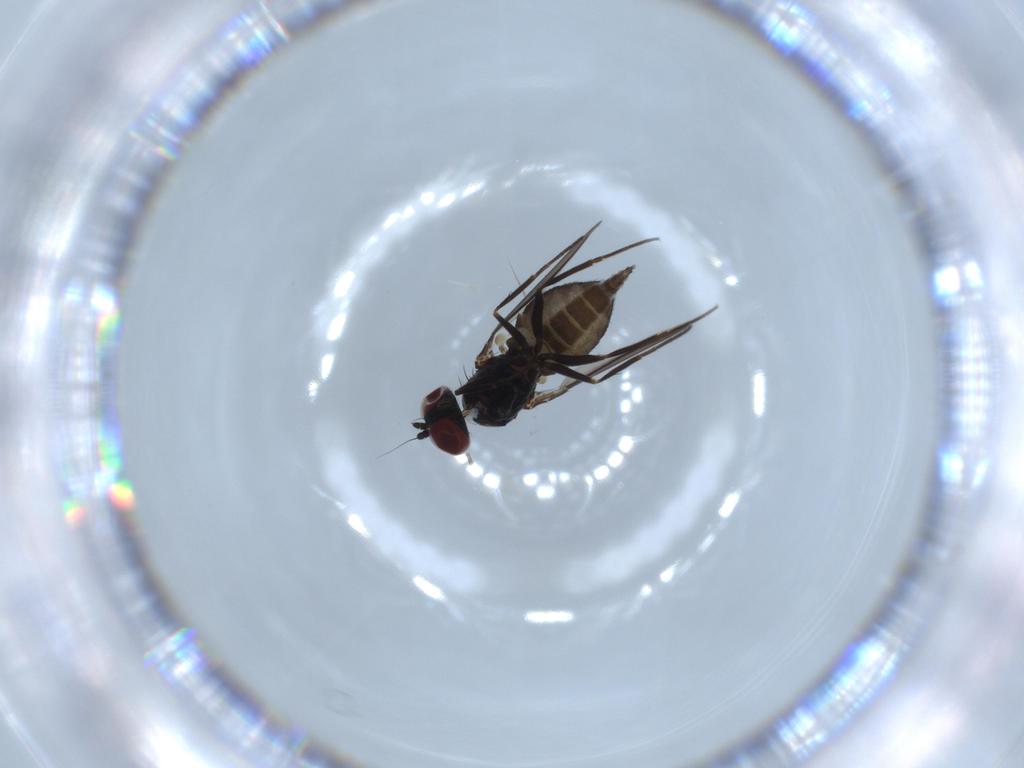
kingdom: Animalia
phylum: Arthropoda
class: Insecta
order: Diptera
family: Dolichopodidae
